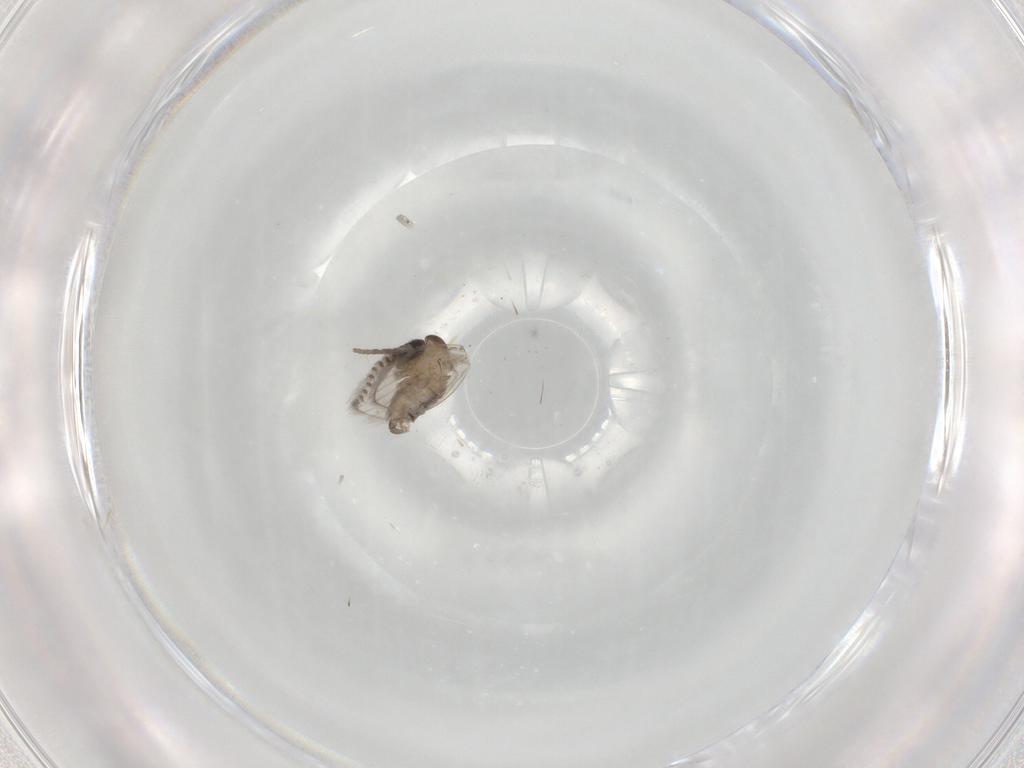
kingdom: Animalia
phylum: Arthropoda
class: Insecta
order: Diptera
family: Psychodidae
